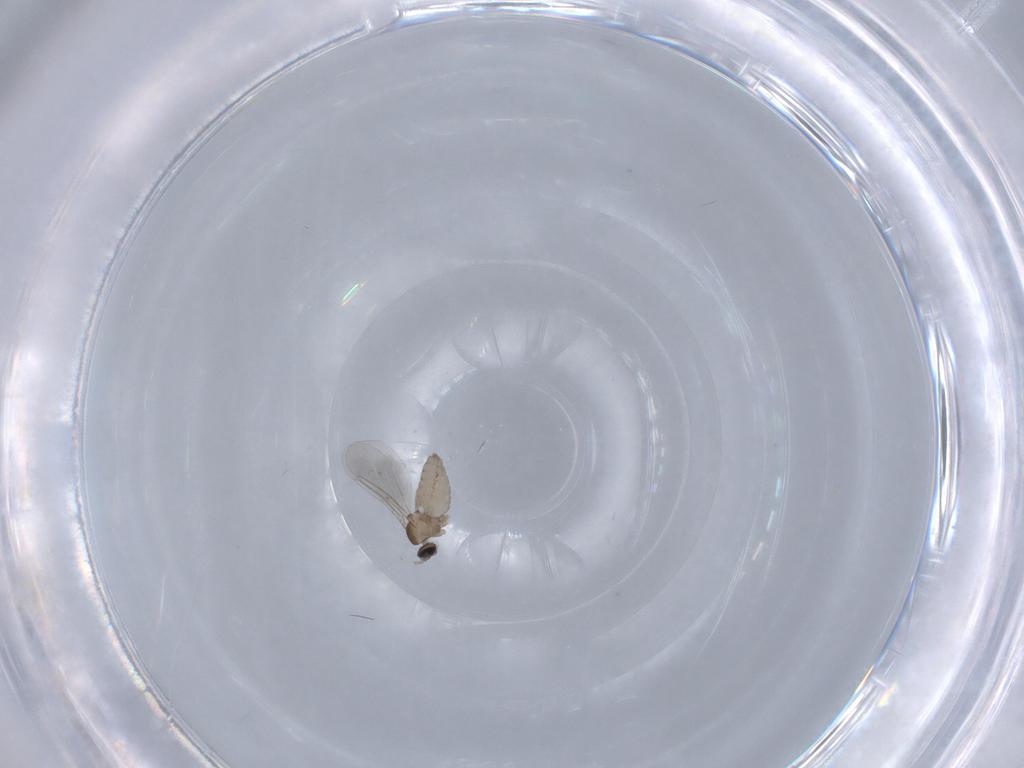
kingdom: Animalia
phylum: Arthropoda
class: Insecta
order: Diptera
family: Cecidomyiidae
